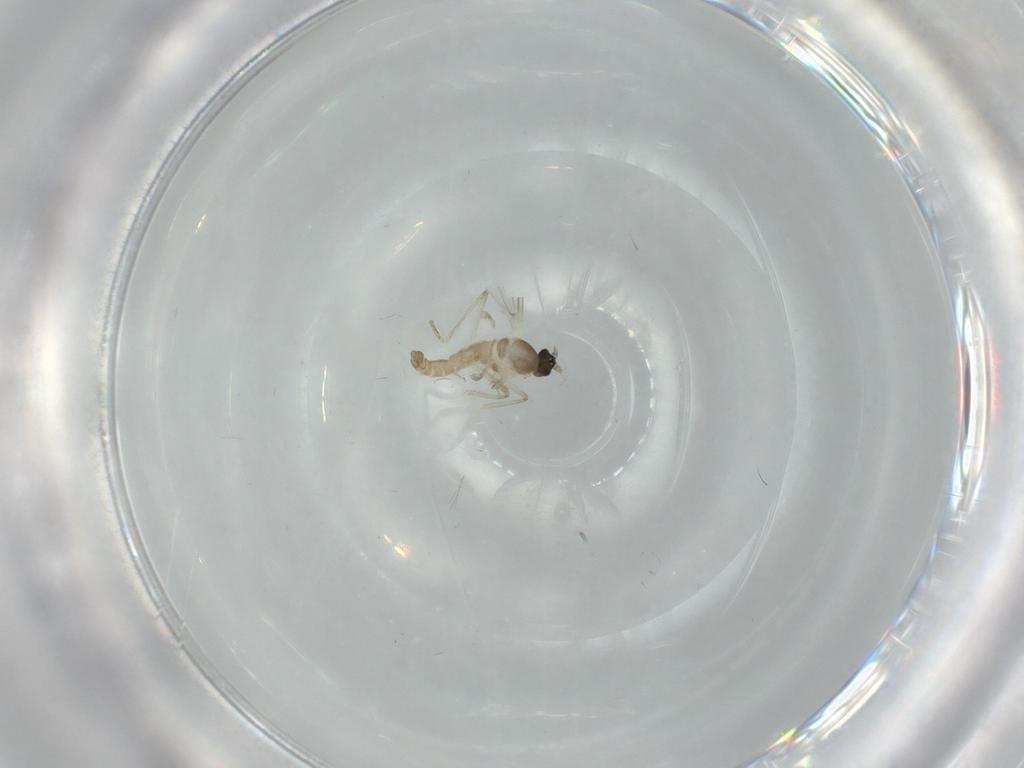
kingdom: Animalia
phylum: Arthropoda
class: Insecta
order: Diptera
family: Cecidomyiidae
